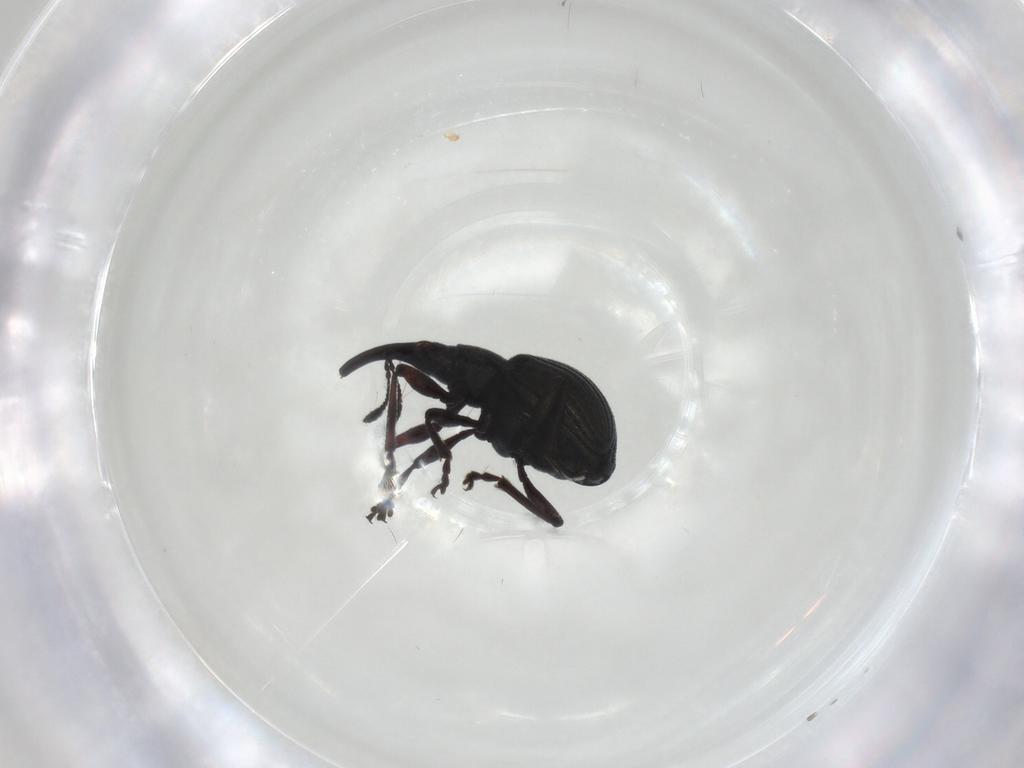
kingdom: Animalia
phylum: Arthropoda
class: Insecta
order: Coleoptera
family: Brentidae
